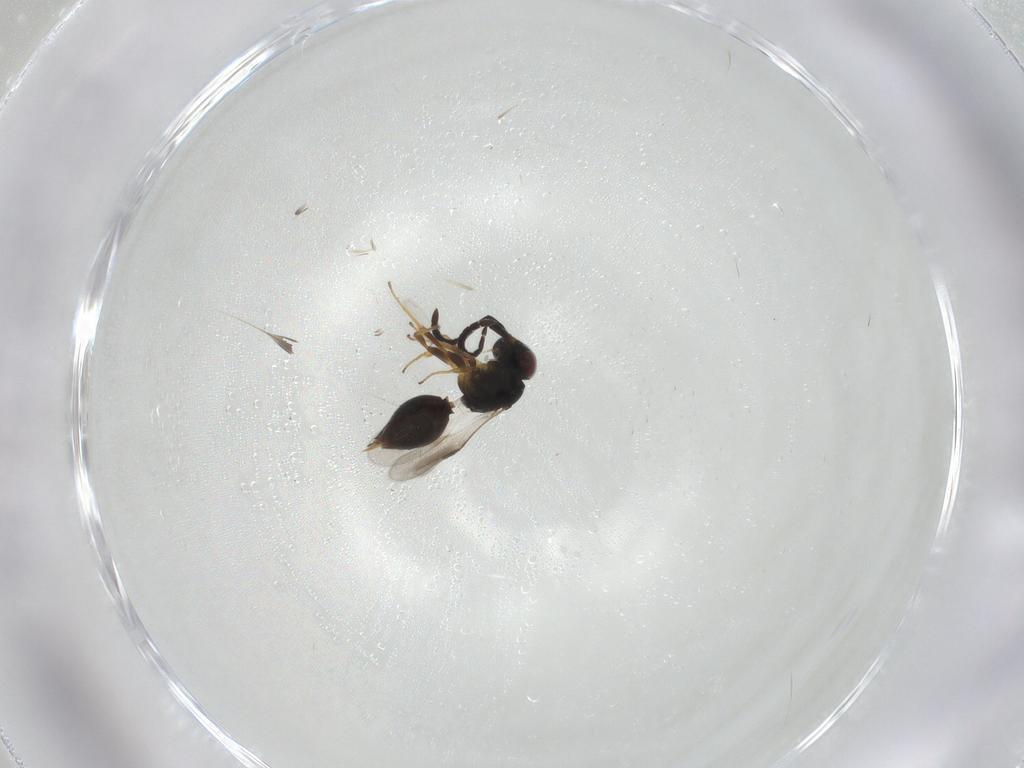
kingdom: Animalia
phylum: Arthropoda
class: Insecta
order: Hymenoptera
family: Megaspilidae
